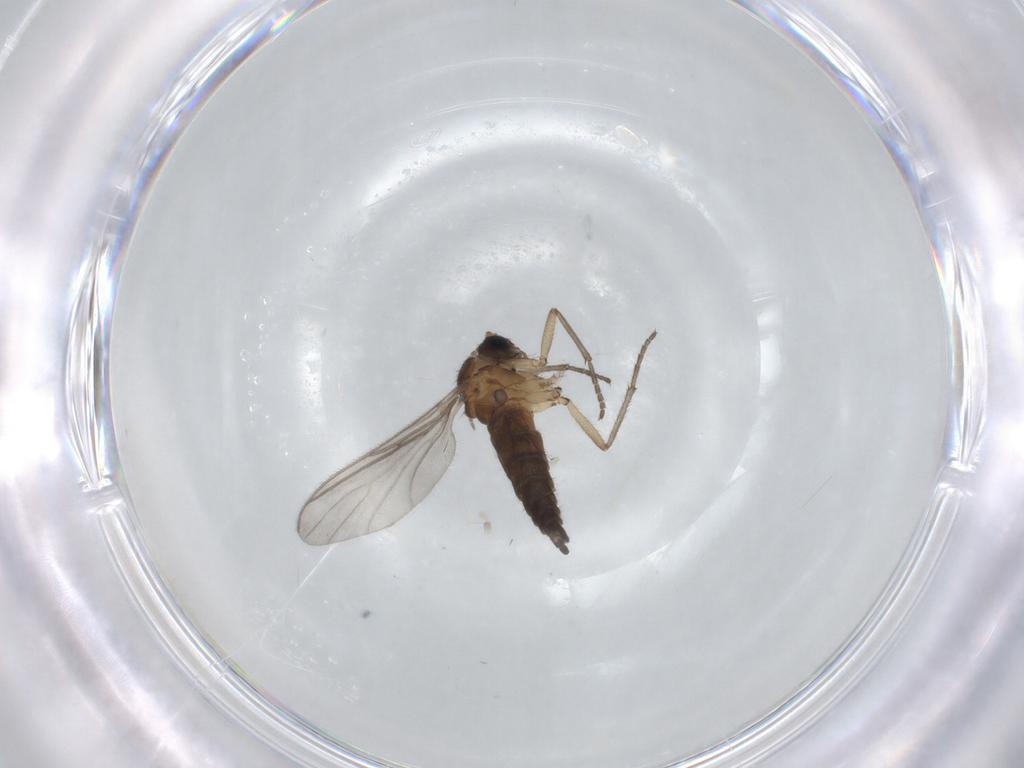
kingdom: Animalia
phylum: Arthropoda
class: Insecta
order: Diptera
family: Sciaridae
